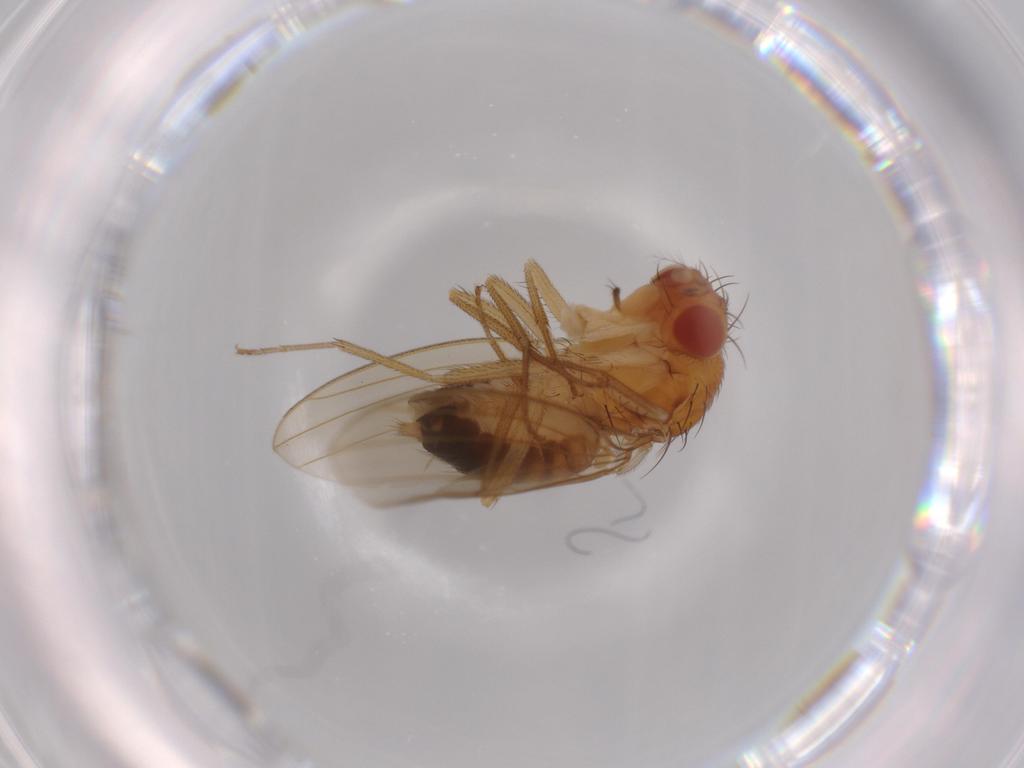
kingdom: Animalia
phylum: Arthropoda
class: Insecta
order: Diptera
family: Drosophilidae
